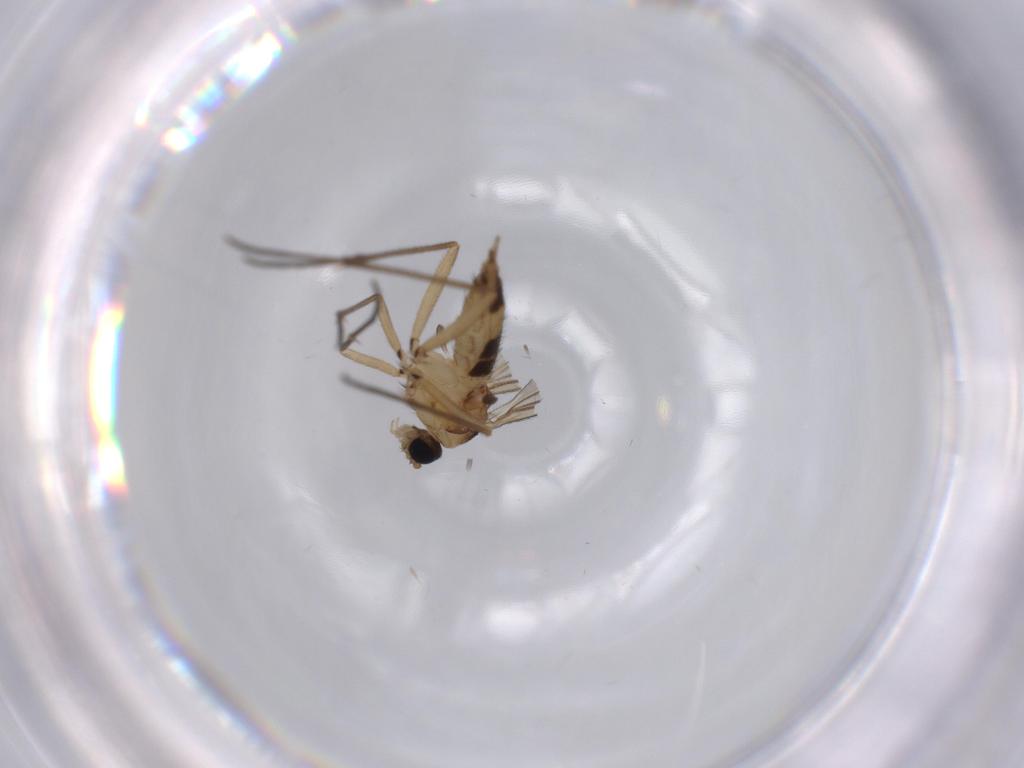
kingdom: Animalia
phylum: Arthropoda
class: Insecta
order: Diptera
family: Sciaridae
